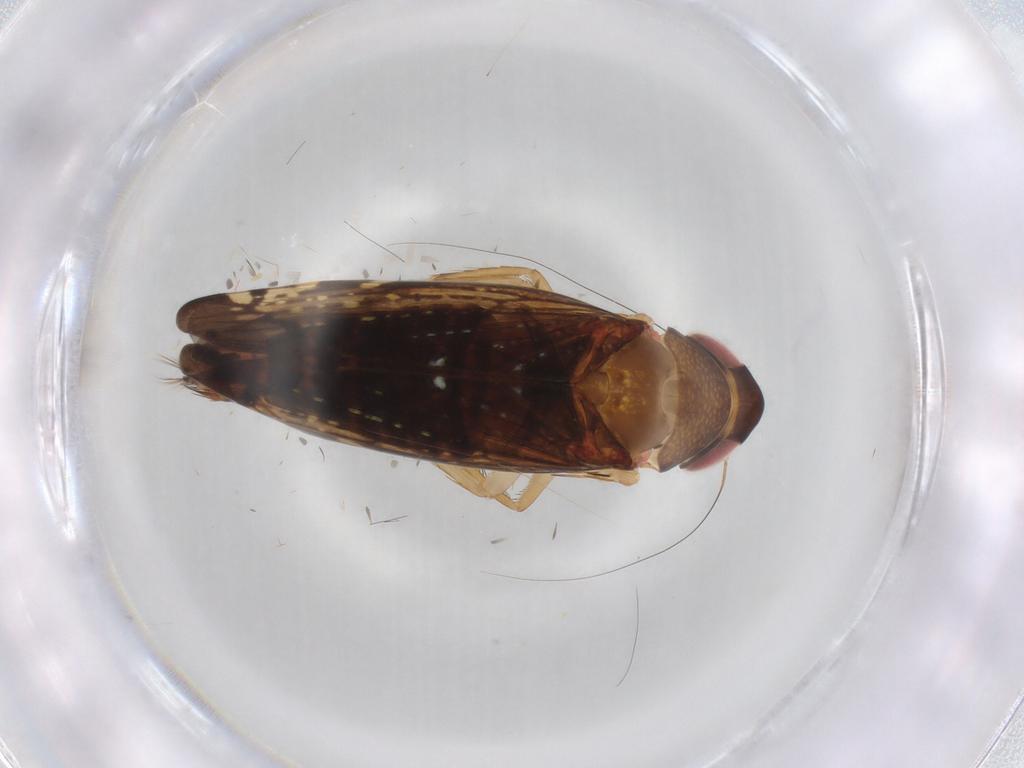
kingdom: Animalia
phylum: Arthropoda
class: Insecta
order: Hemiptera
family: Cicadellidae
